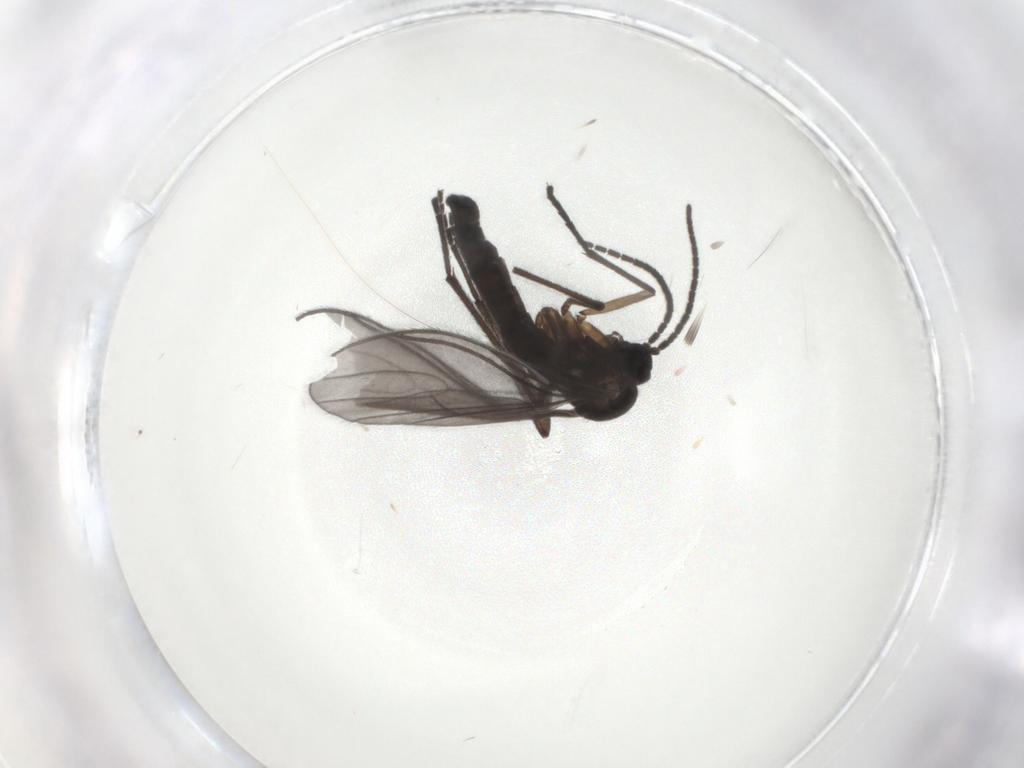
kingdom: Animalia
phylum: Arthropoda
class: Insecta
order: Diptera
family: Sciaridae
